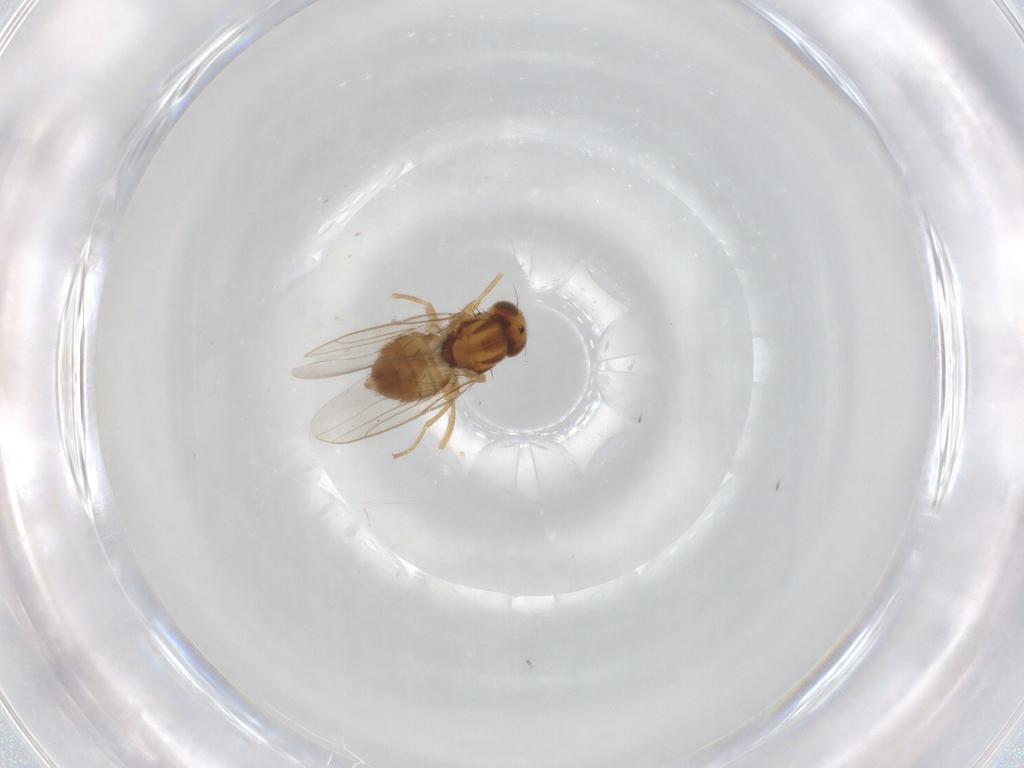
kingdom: Animalia
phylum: Arthropoda
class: Insecta
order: Diptera
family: Chloropidae
